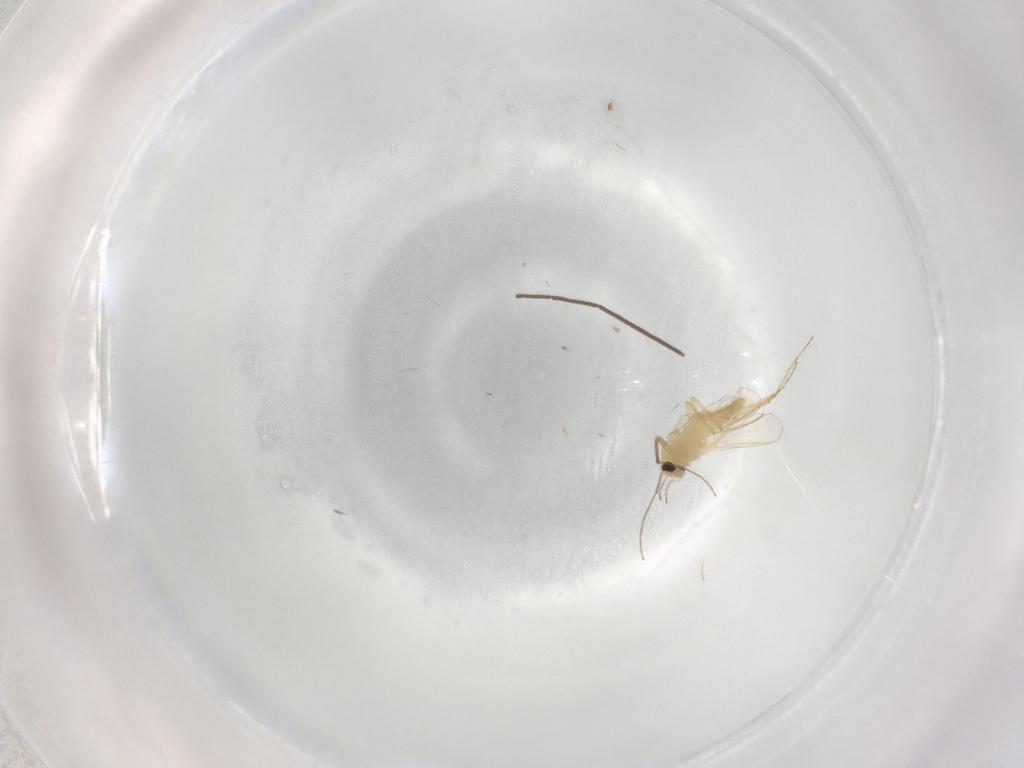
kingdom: Animalia
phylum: Arthropoda
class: Insecta
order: Diptera
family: Chironomidae
